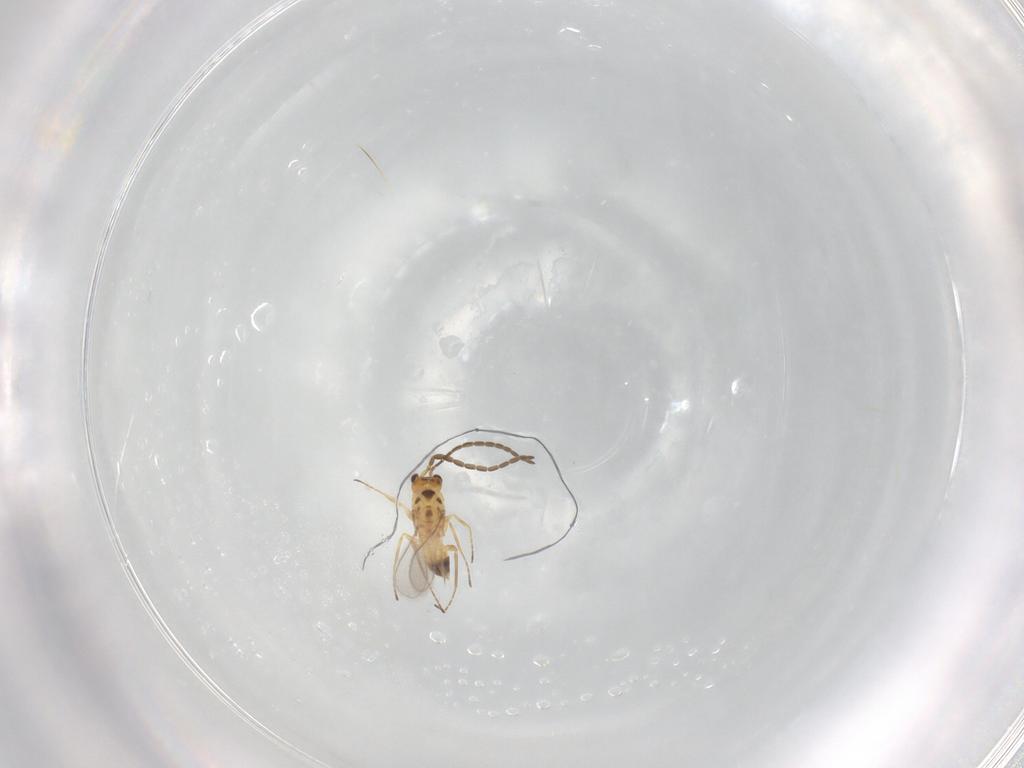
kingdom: Animalia
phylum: Arthropoda
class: Insecta
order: Hymenoptera
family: Mymaridae
